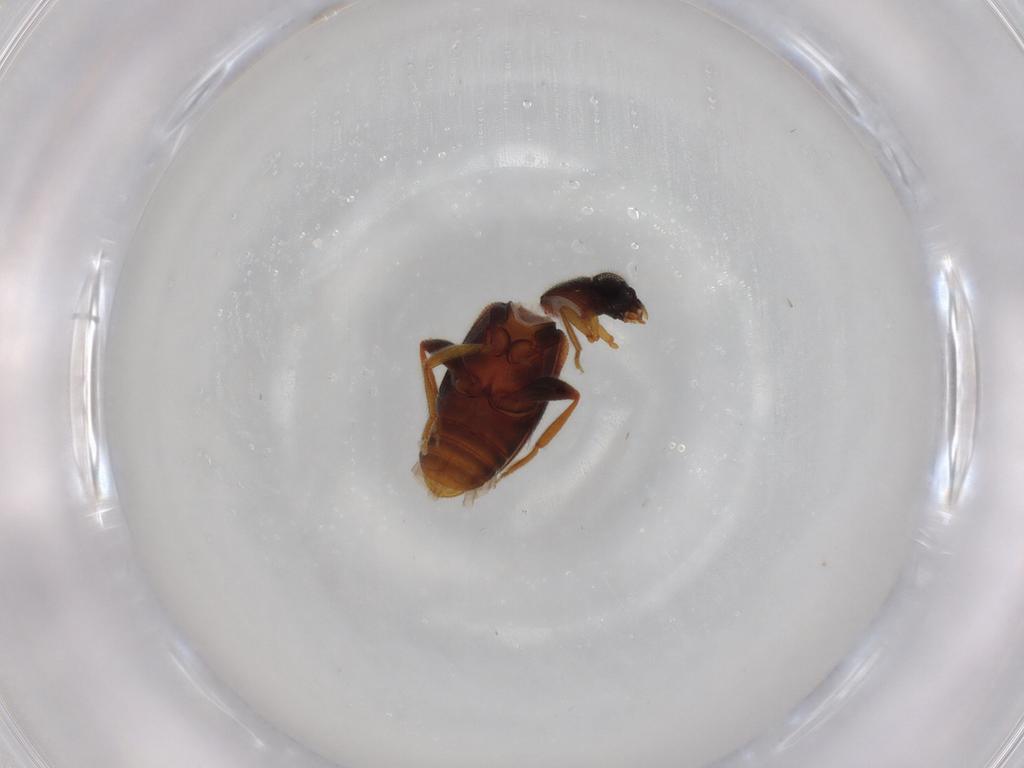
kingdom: Animalia
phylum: Arthropoda
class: Insecta
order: Coleoptera
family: Aderidae
